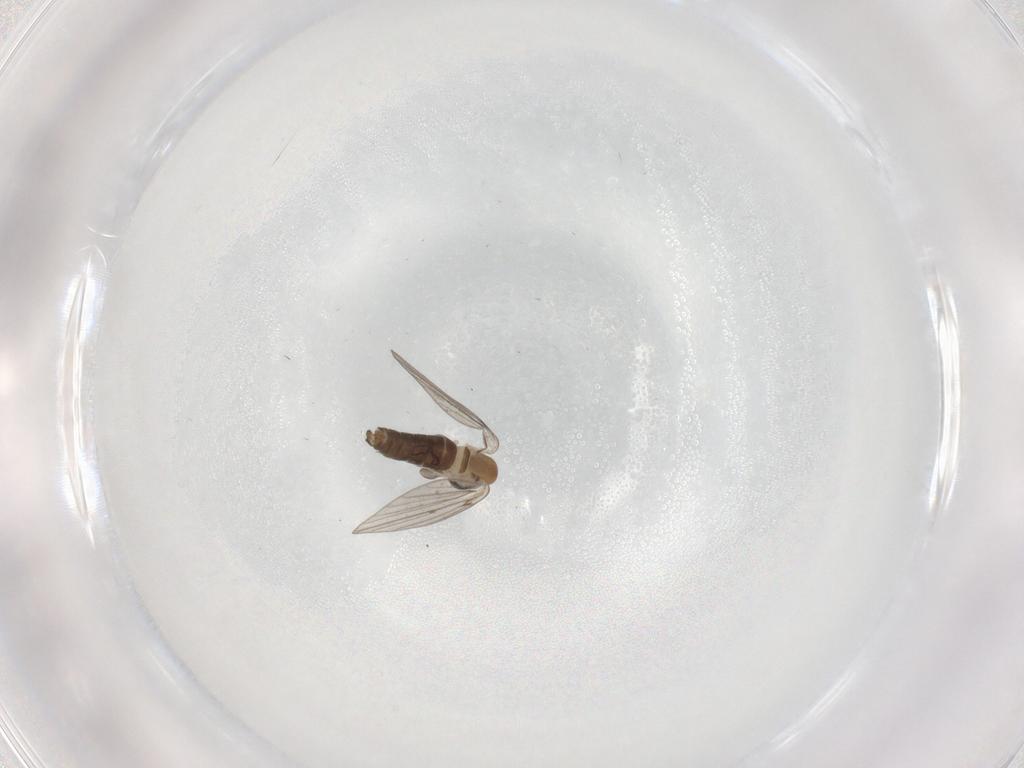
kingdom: Animalia
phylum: Arthropoda
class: Insecta
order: Diptera
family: Psychodidae
